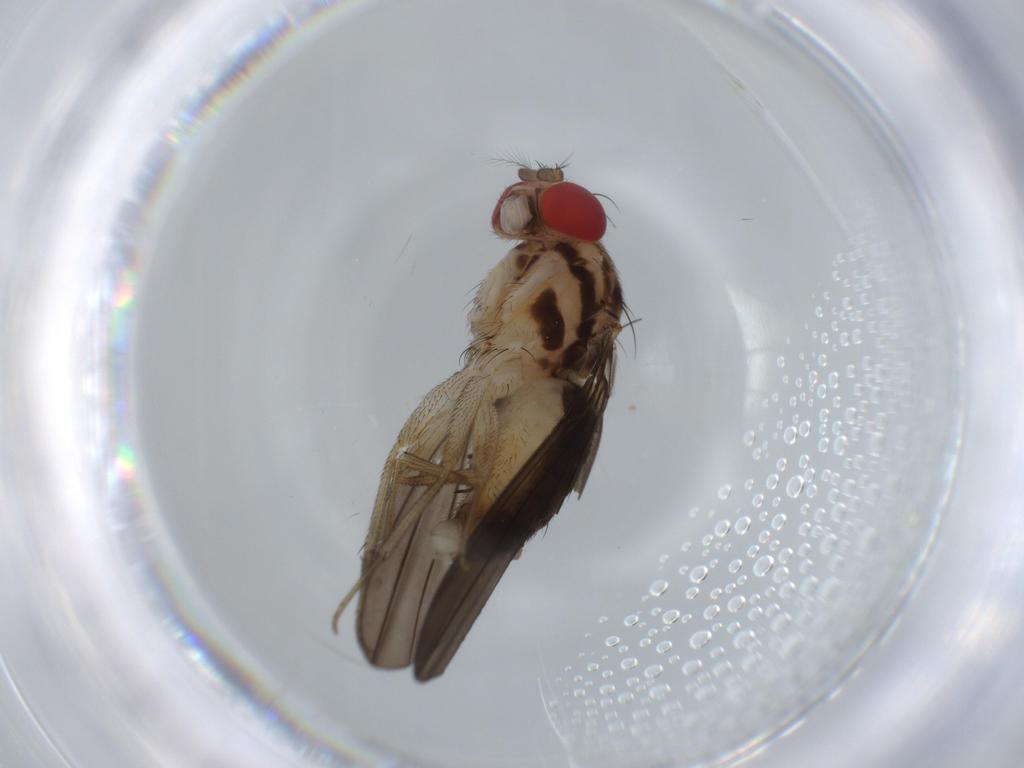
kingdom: Animalia
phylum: Arthropoda
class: Insecta
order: Diptera
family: Drosophilidae
